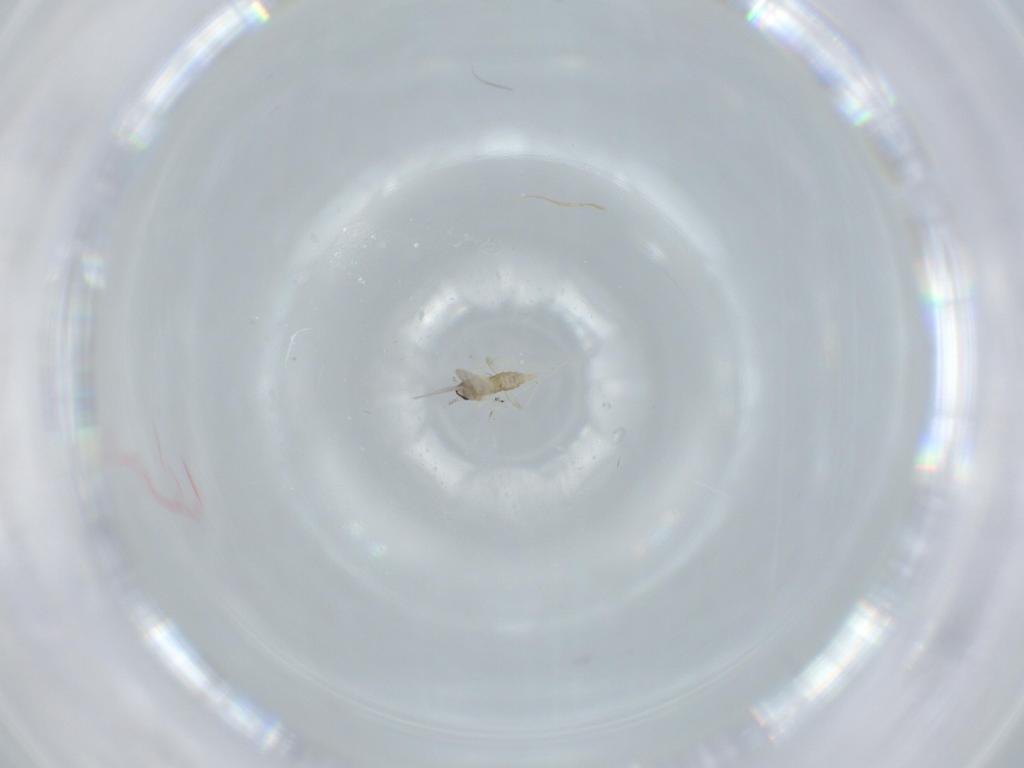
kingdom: Animalia
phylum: Arthropoda
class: Insecta
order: Diptera
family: Cecidomyiidae
